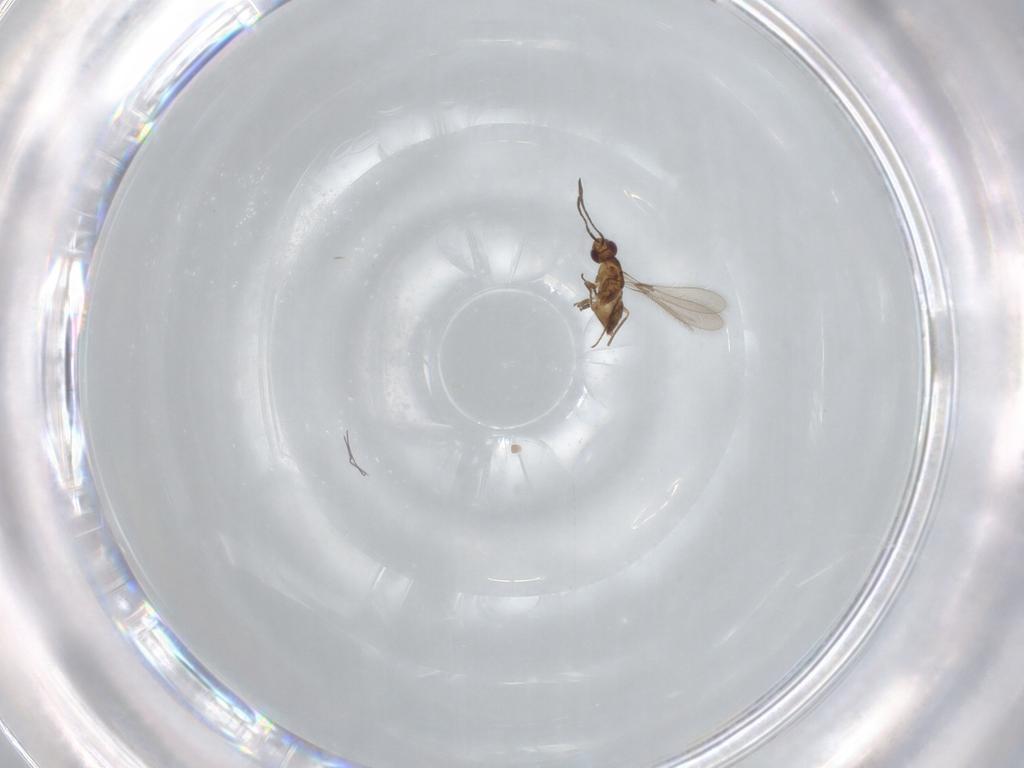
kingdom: Animalia
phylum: Arthropoda
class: Insecta
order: Hymenoptera
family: Mymaridae
